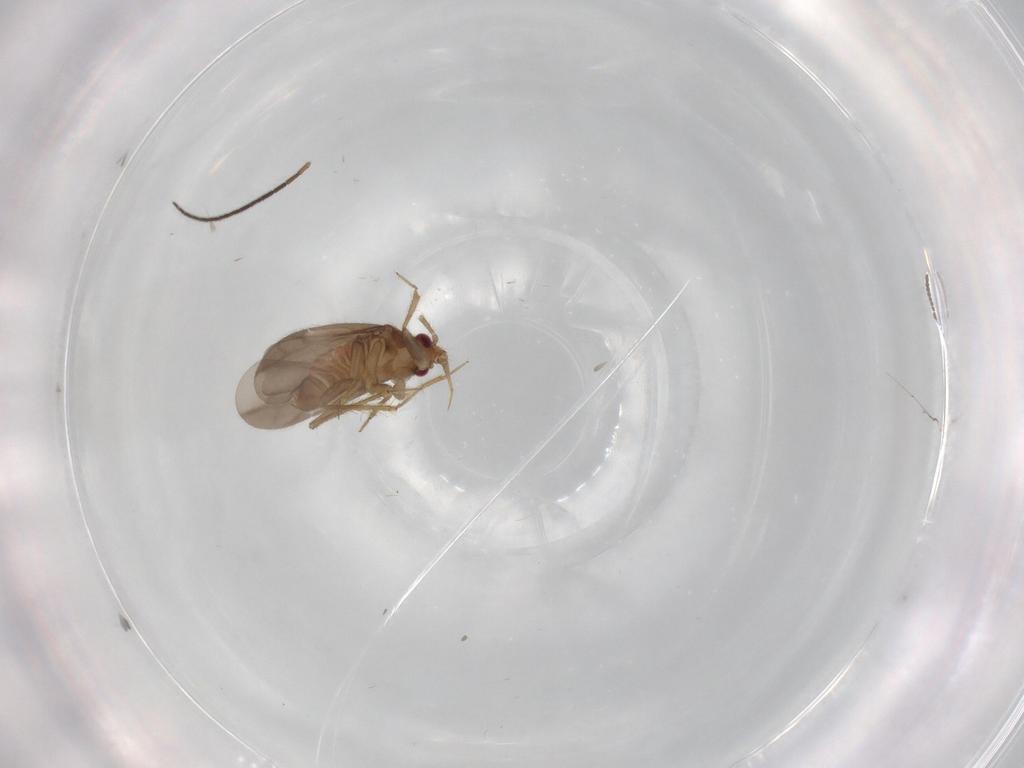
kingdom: Animalia
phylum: Arthropoda
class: Insecta
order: Hemiptera
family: Ceratocombidae
